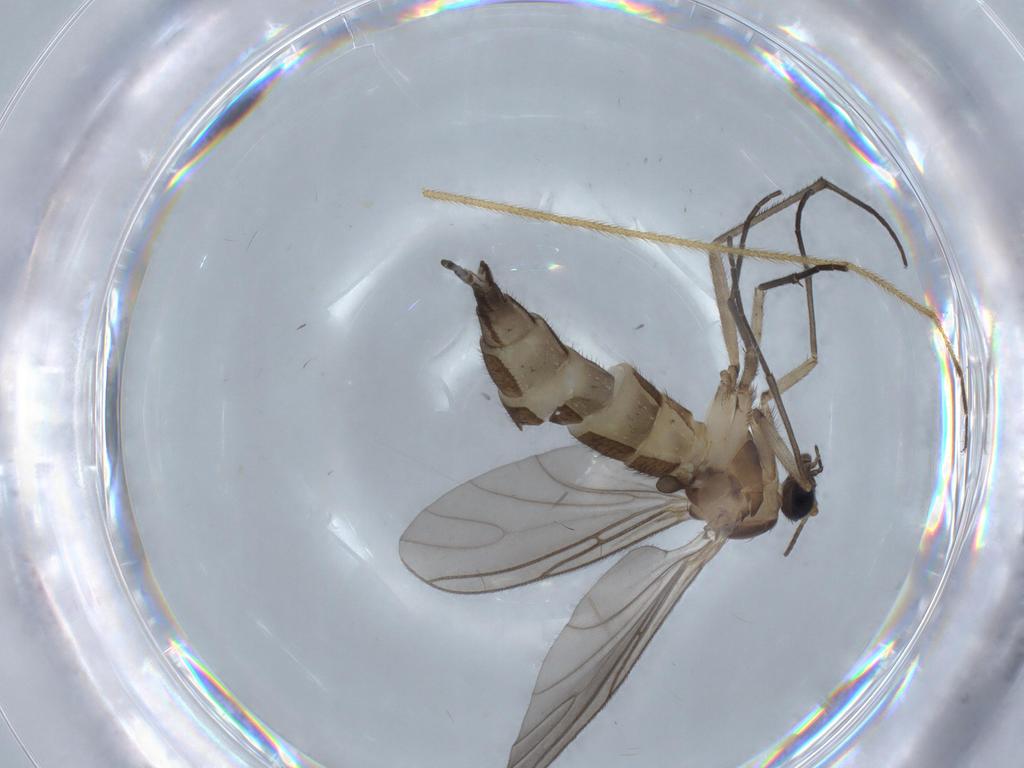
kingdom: Animalia
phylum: Arthropoda
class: Insecta
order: Diptera
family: Sciaridae
